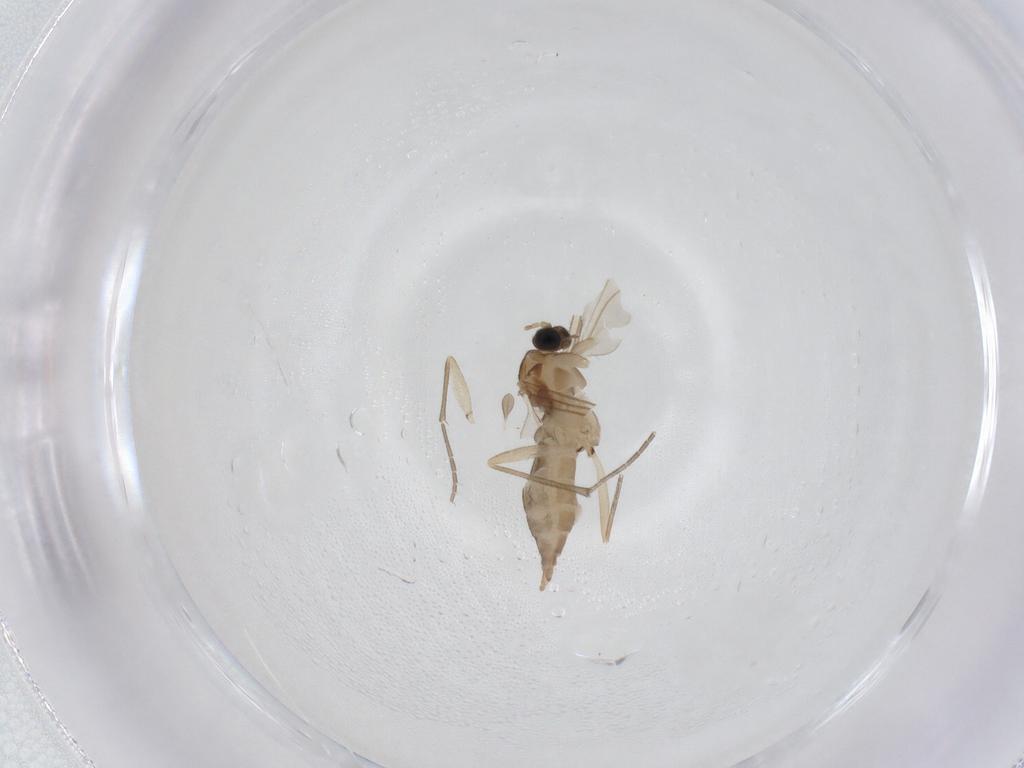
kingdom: Animalia
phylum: Arthropoda
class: Insecta
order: Diptera
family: Sciaridae
